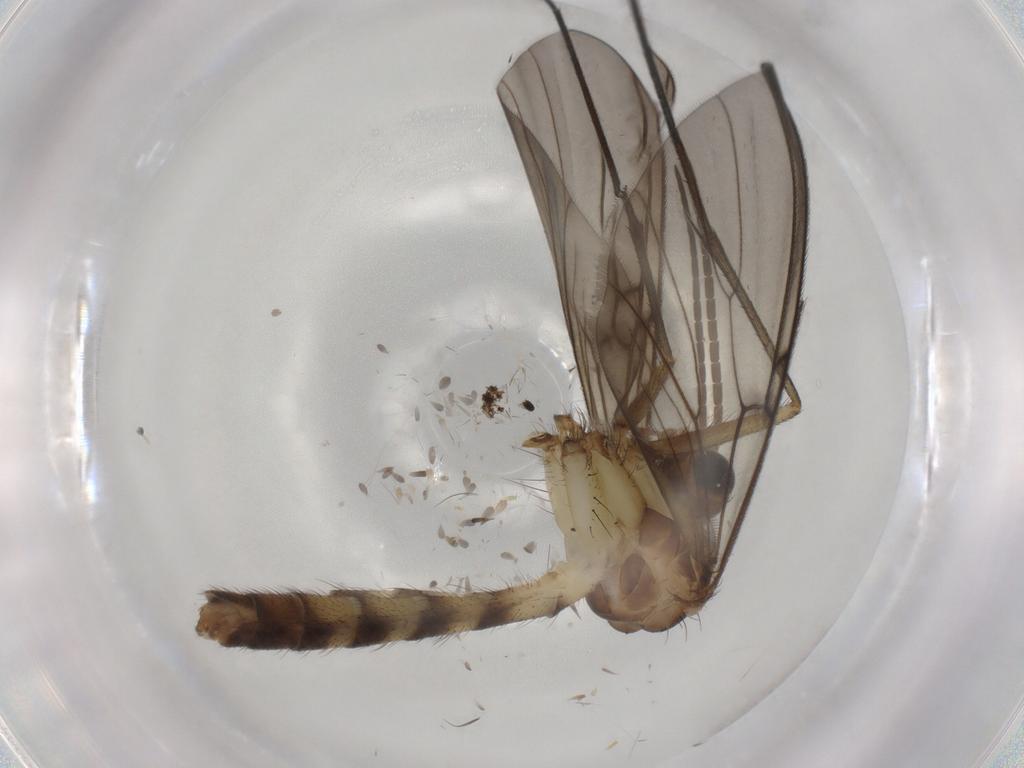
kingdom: Animalia
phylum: Arthropoda
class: Insecta
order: Diptera
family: Mycetophilidae
